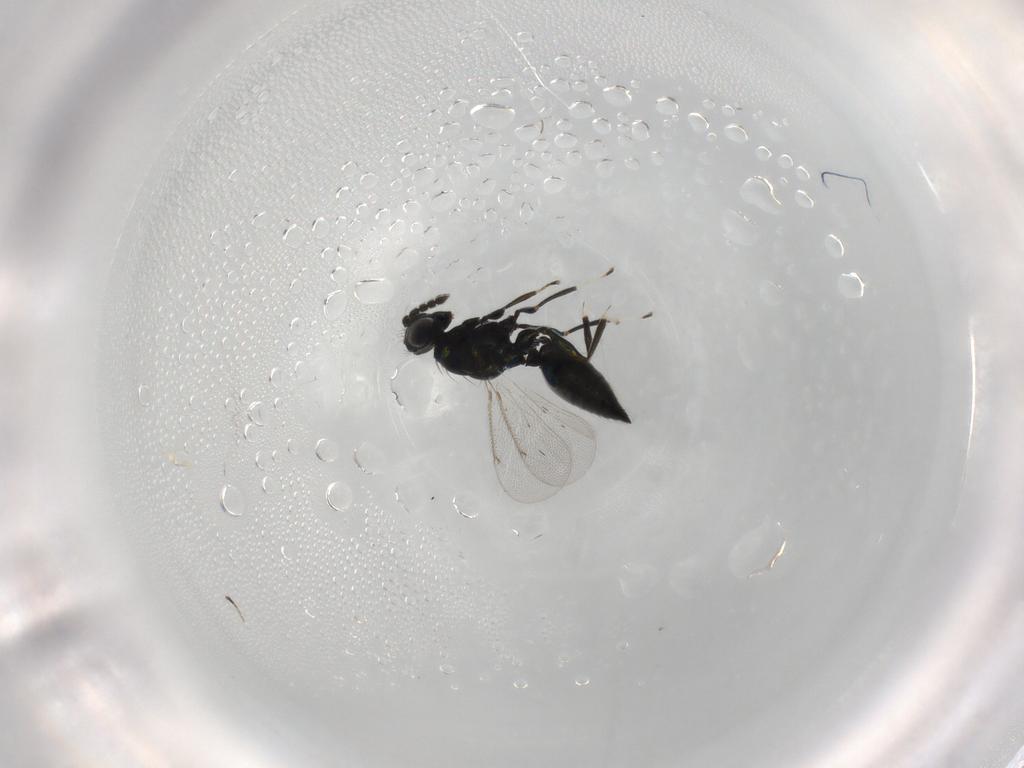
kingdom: Animalia
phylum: Arthropoda
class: Insecta
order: Hymenoptera
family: Eulophidae
